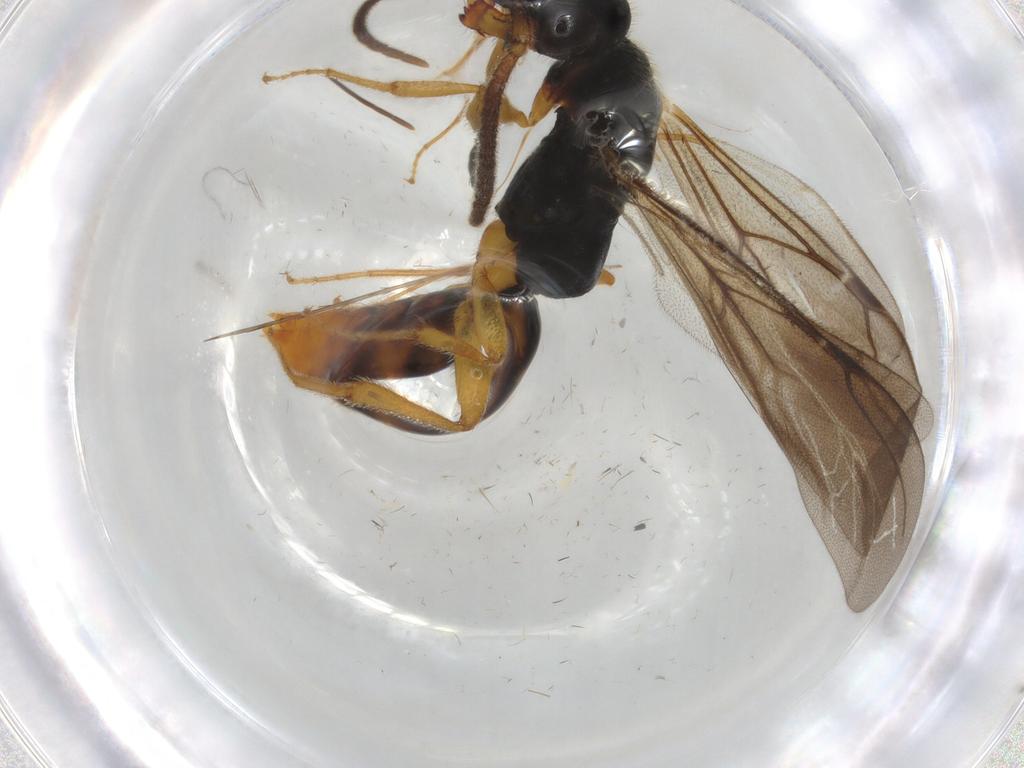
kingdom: Animalia
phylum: Arthropoda
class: Insecta
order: Hymenoptera
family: Bethylidae
